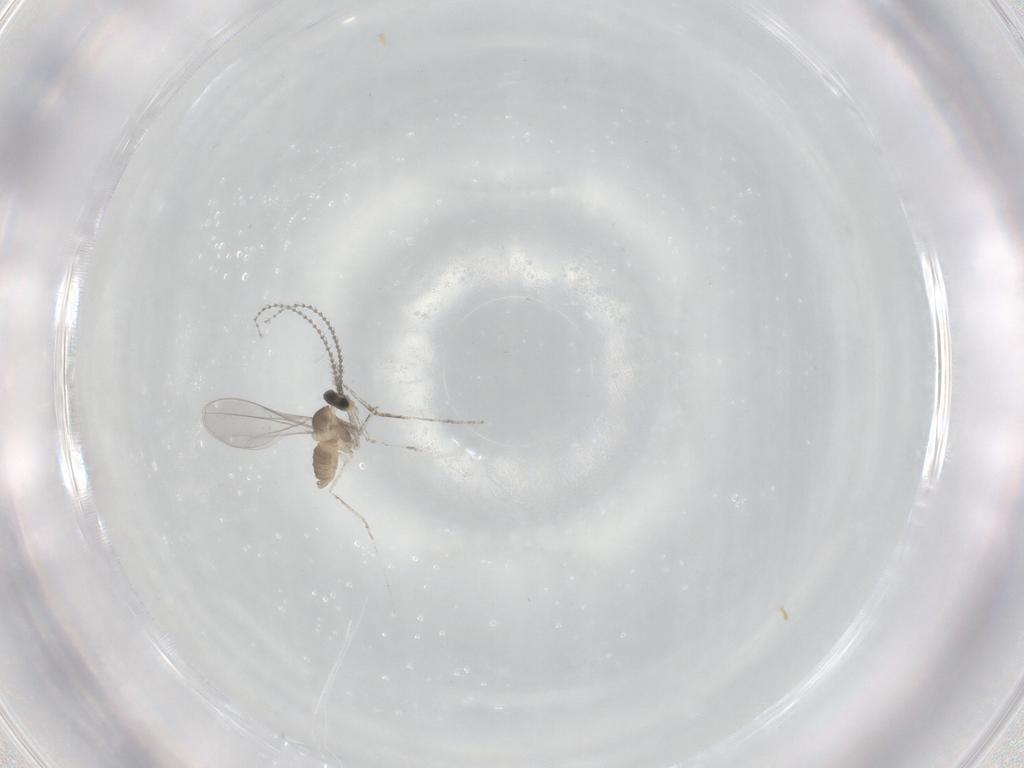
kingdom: Animalia
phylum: Arthropoda
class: Insecta
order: Diptera
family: Cecidomyiidae
